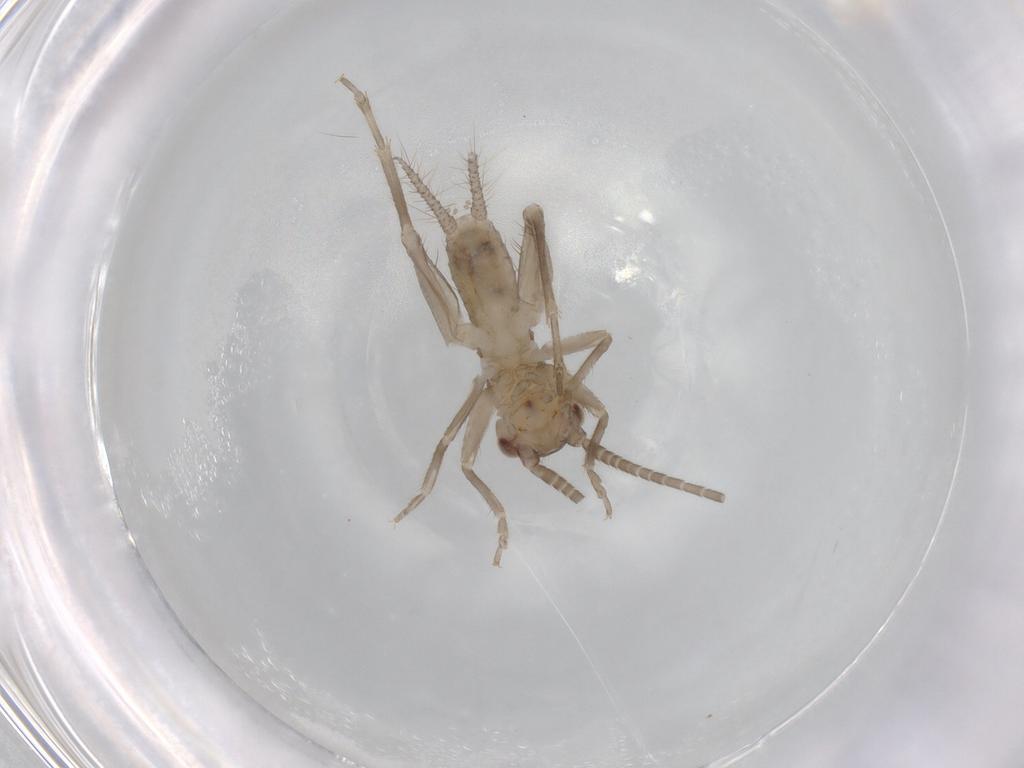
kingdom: Animalia
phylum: Arthropoda
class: Insecta
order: Orthoptera
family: Gryllidae
